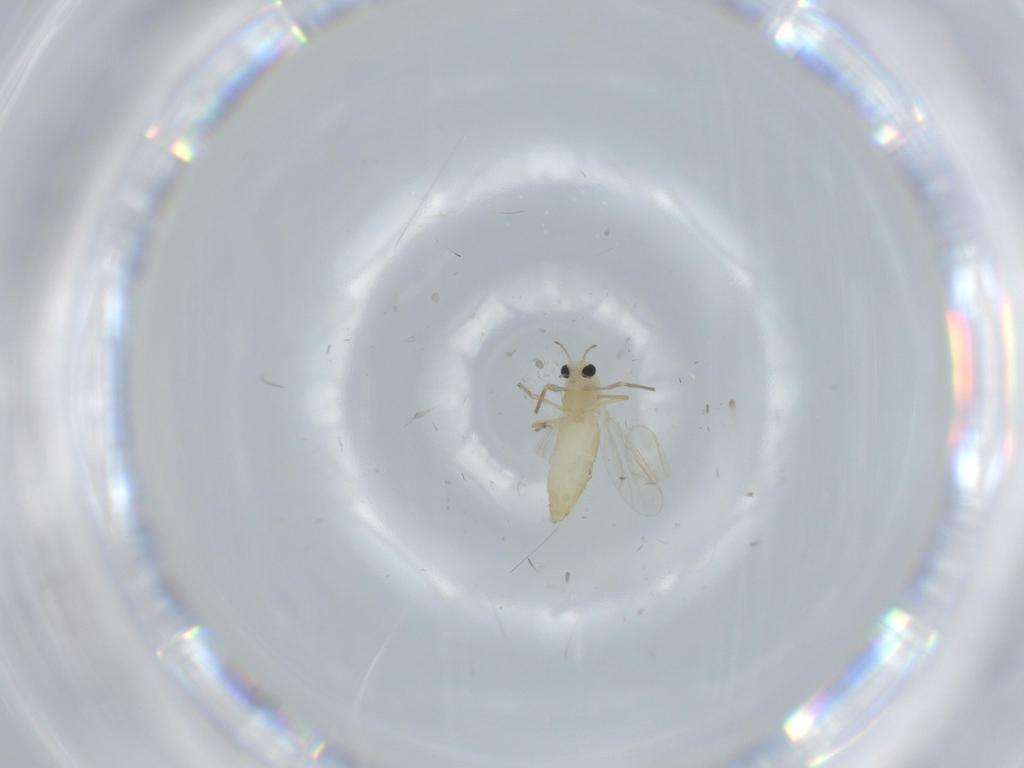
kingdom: Animalia
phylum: Arthropoda
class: Insecta
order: Diptera
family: Chironomidae
